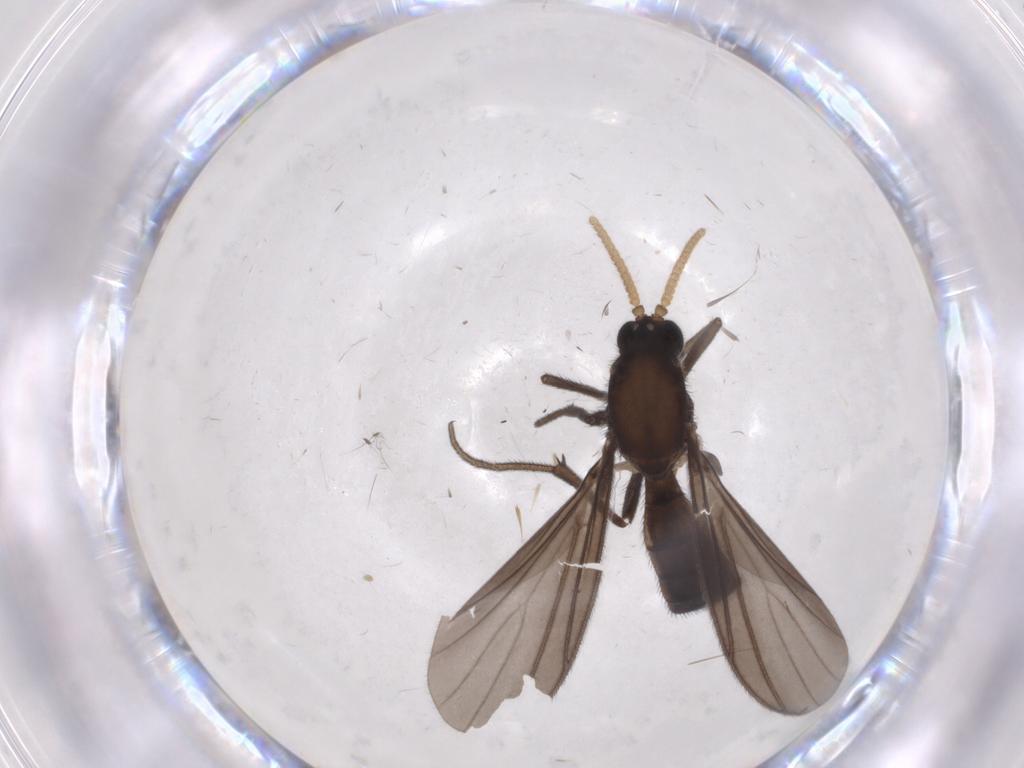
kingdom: Animalia
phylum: Arthropoda
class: Insecta
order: Diptera
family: Mycetophilidae
